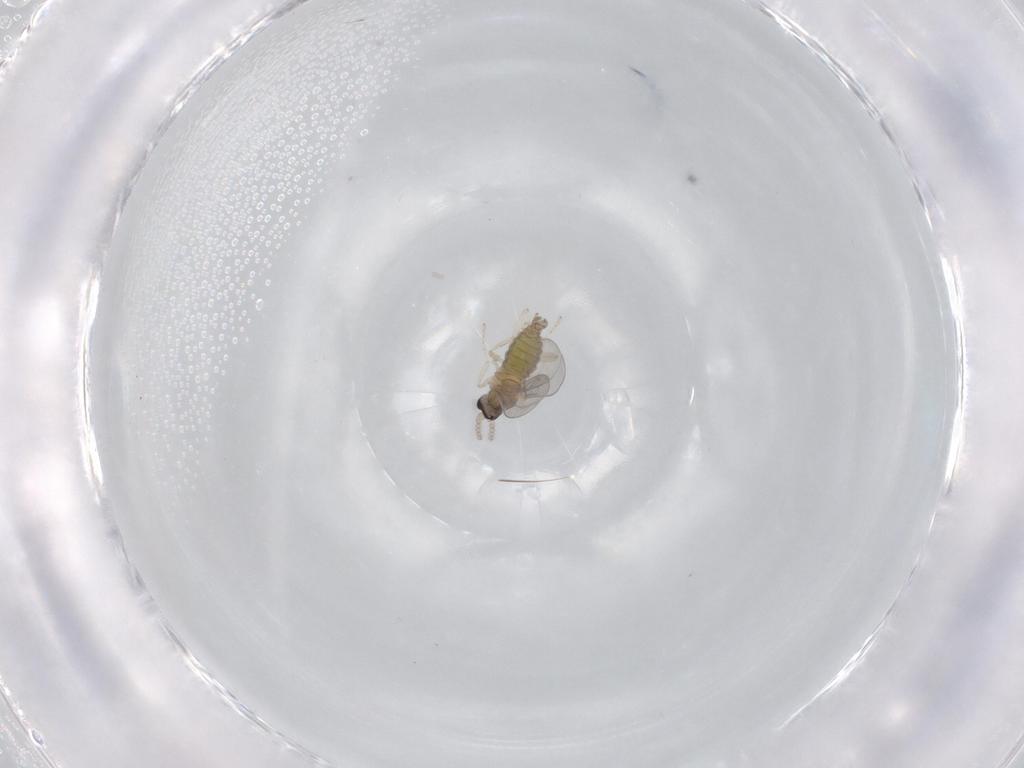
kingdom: Animalia
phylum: Arthropoda
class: Insecta
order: Diptera
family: Cecidomyiidae
